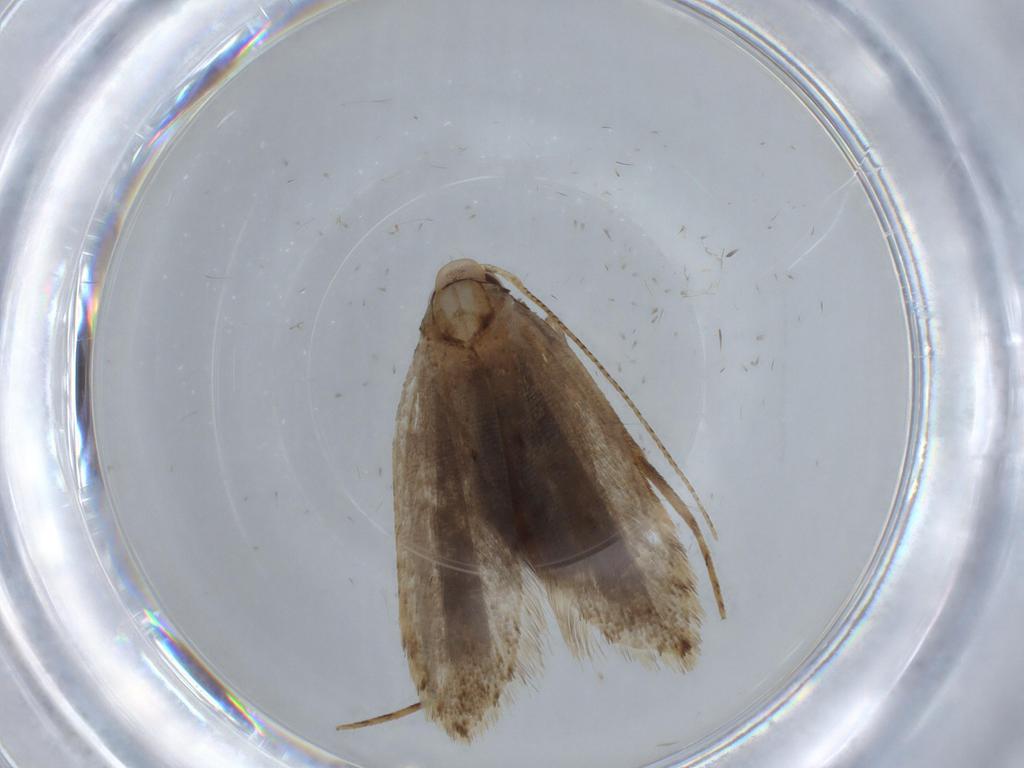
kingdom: Animalia
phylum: Arthropoda
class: Insecta
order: Lepidoptera
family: Gelechiidae
